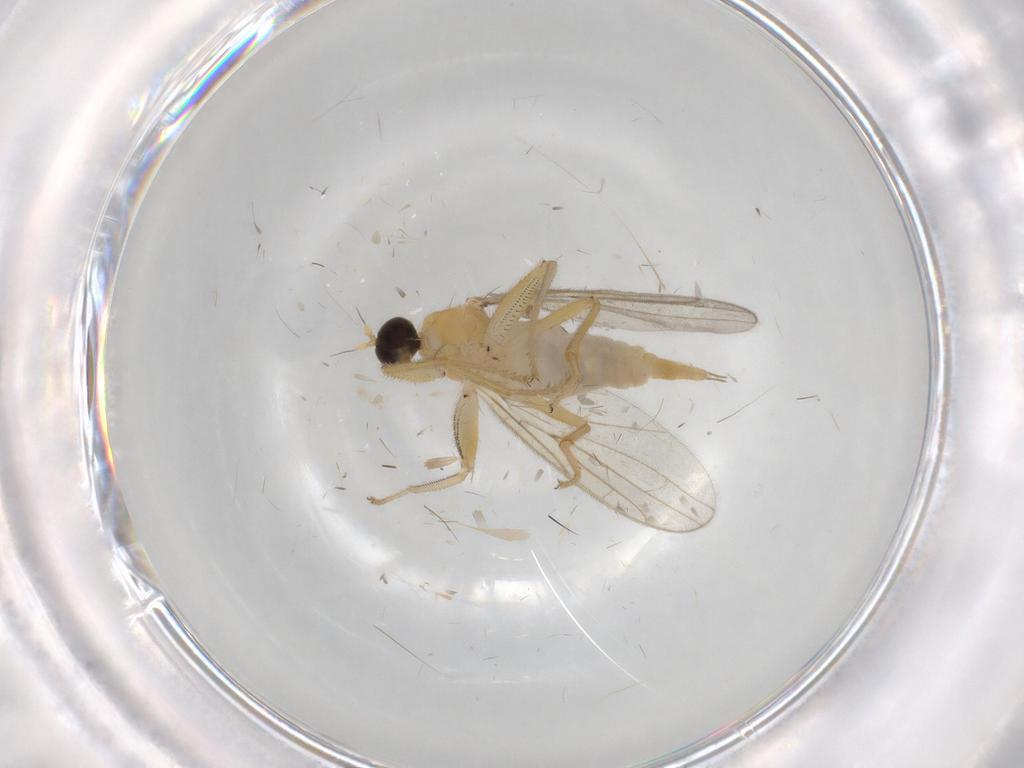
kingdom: Animalia
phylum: Arthropoda
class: Insecta
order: Diptera
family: Hybotidae
